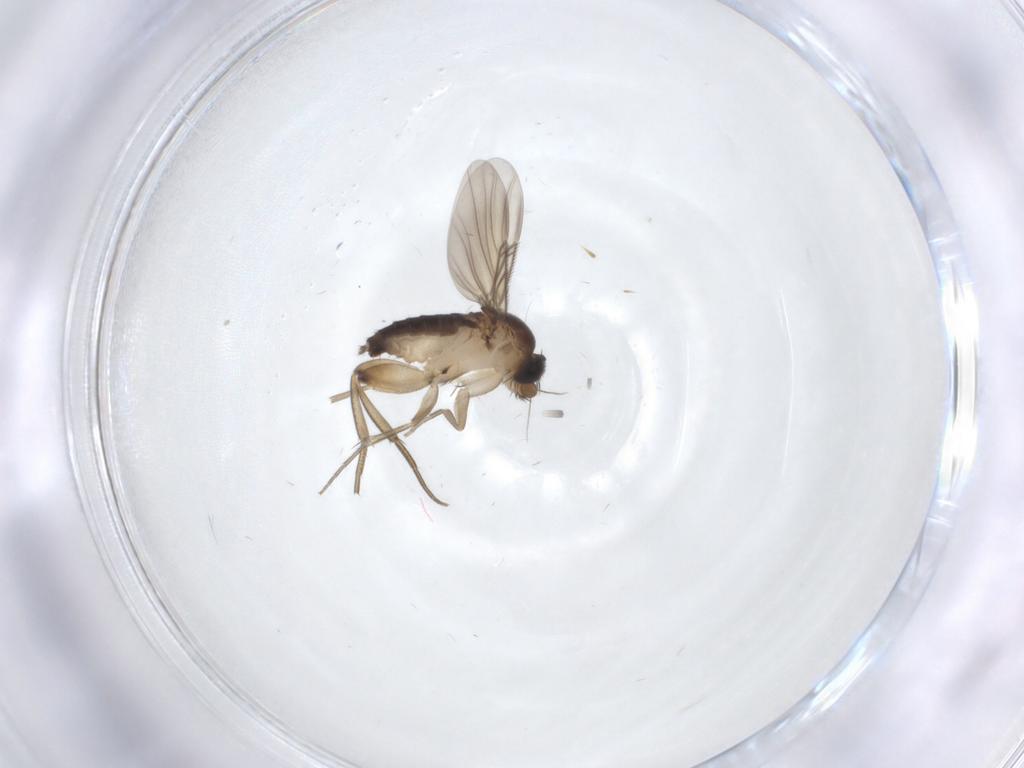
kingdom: Animalia
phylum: Arthropoda
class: Insecta
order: Diptera
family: Phoridae
